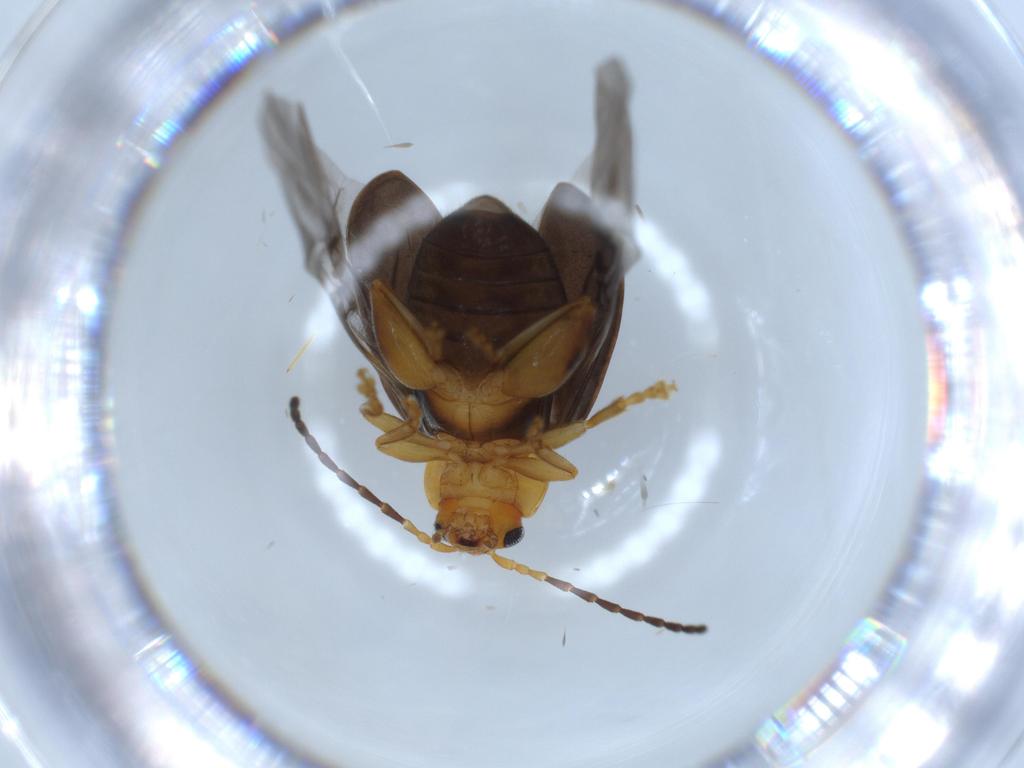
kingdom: Animalia
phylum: Arthropoda
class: Insecta
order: Coleoptera
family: Chrysomelidae
